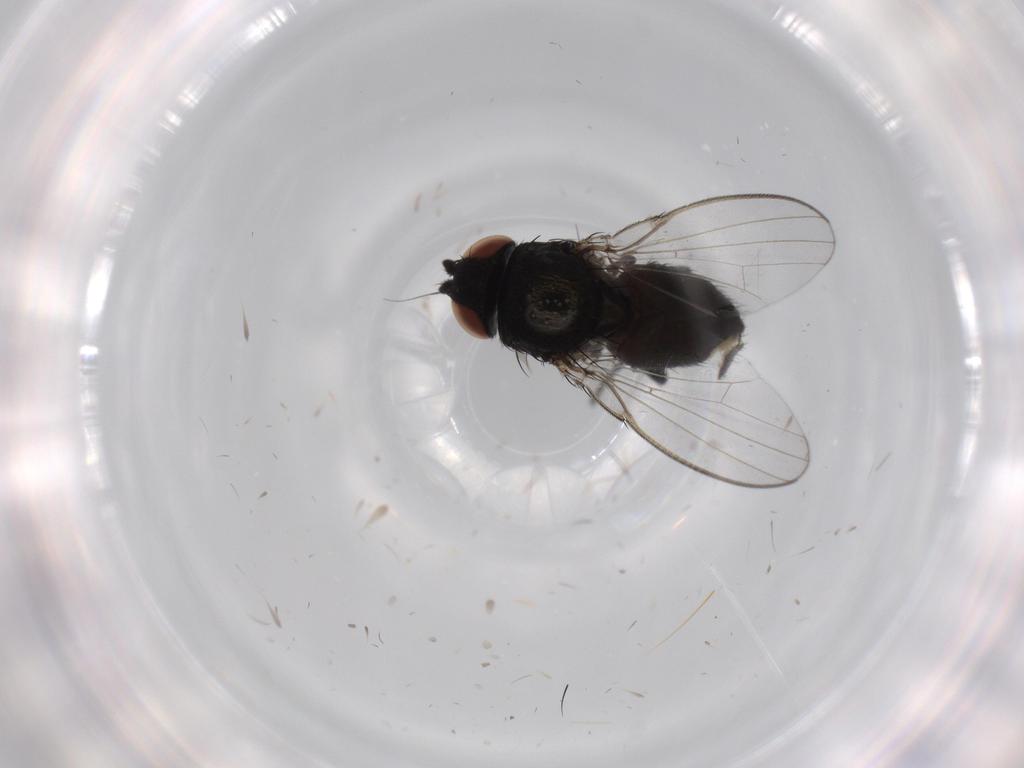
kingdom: Animalia
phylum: Arthropoda
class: Insecta
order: Diptera
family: Milichiidae
